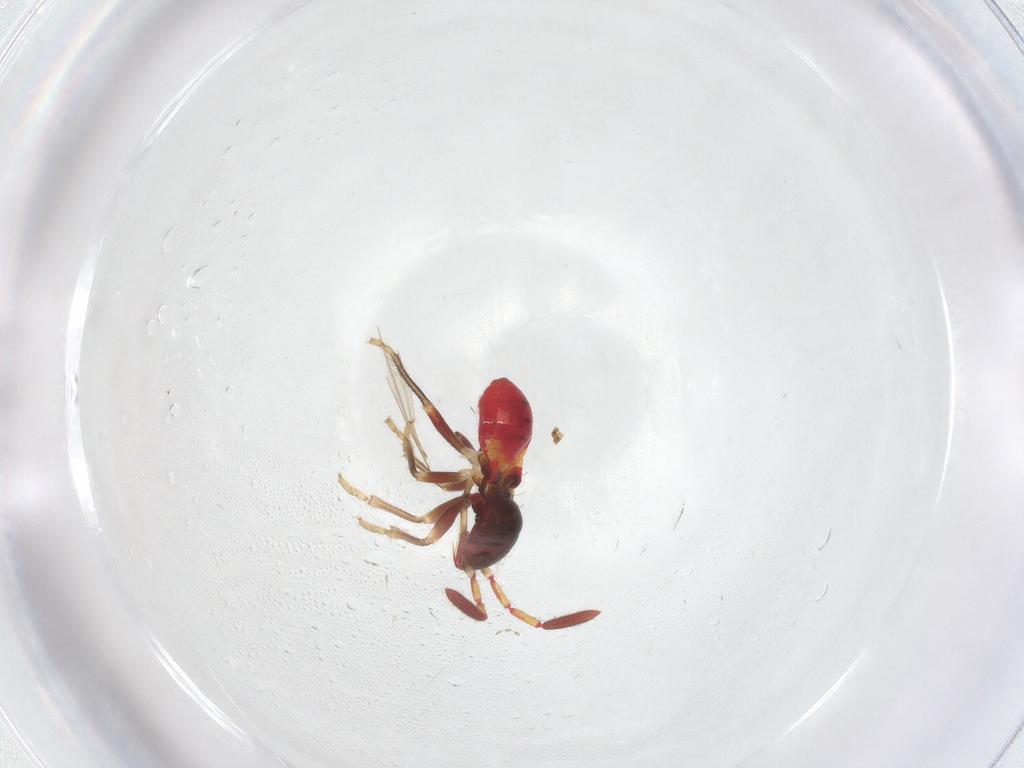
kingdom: Animalia
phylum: Arthropoda
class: Insecta
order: Hemiptera
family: Rhyparochromidae
